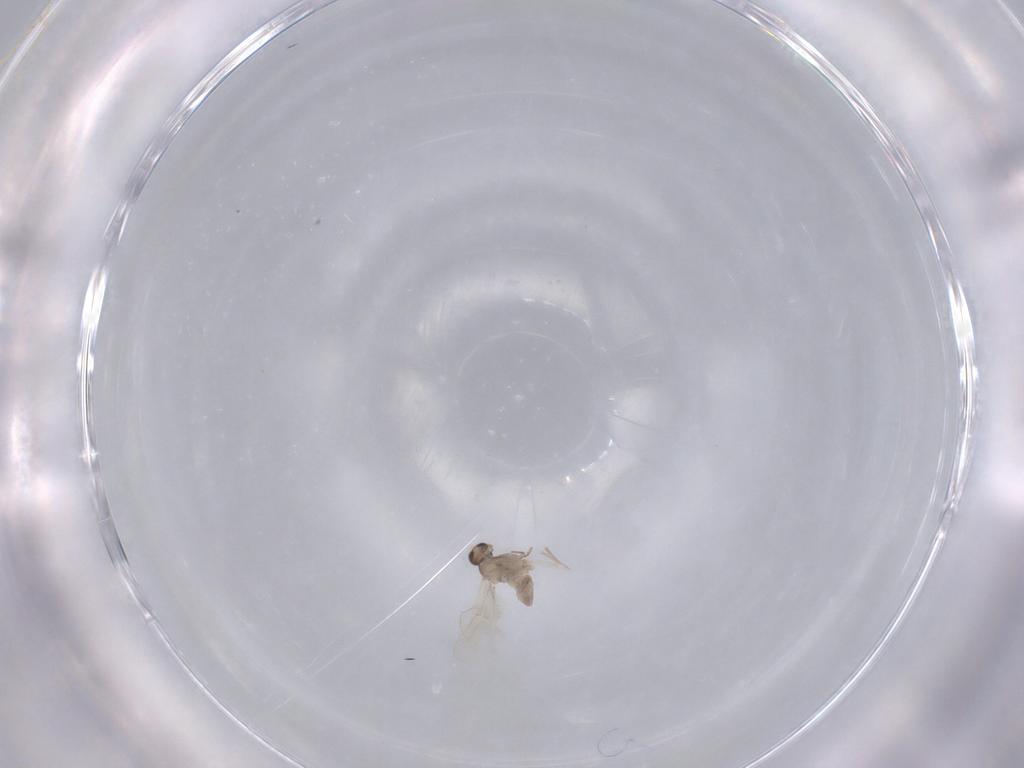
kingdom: Animalia
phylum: Arthropoda
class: Insecta
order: Diptera
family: Cecidomyiidae
